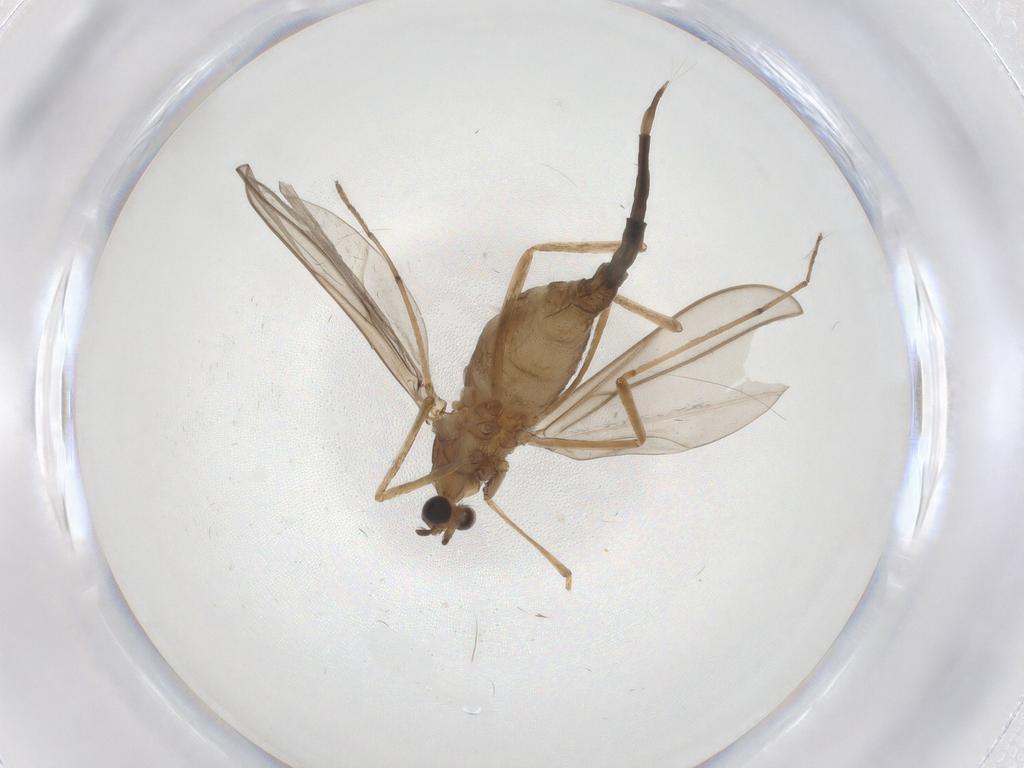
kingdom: Animalia
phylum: Arthropoda
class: Insecta
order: Diptera
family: Cecidomyiidae
